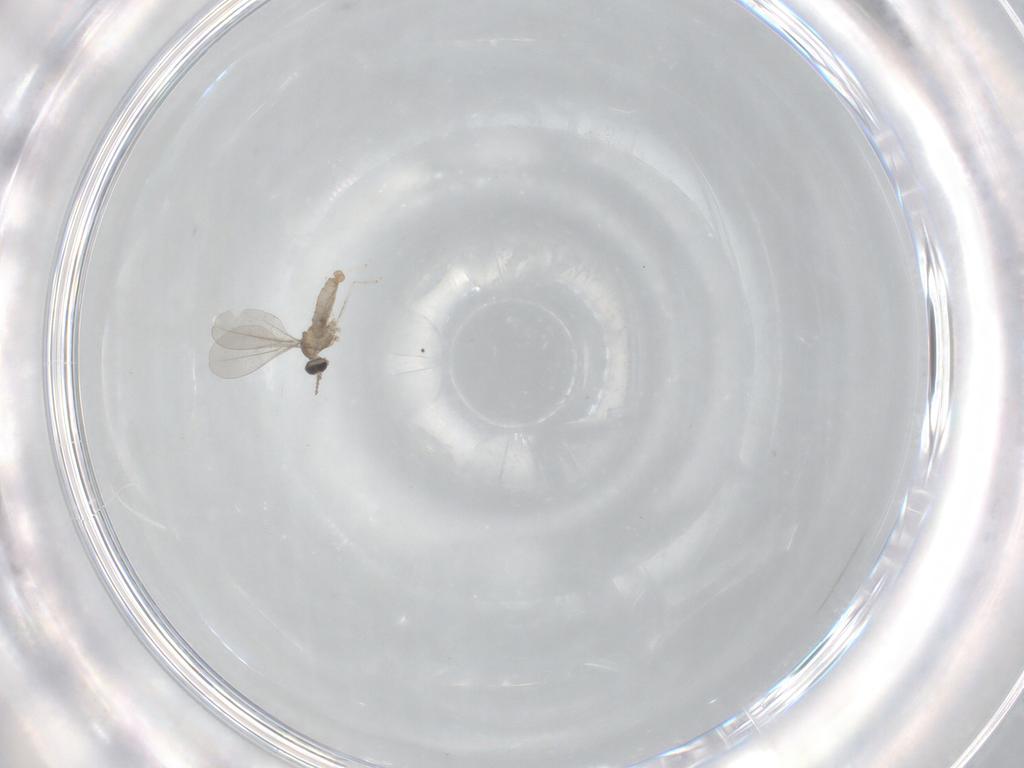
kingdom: Animalia
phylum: Arthropoda
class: Insecta
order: Diptera
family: Cecidomyiidae
